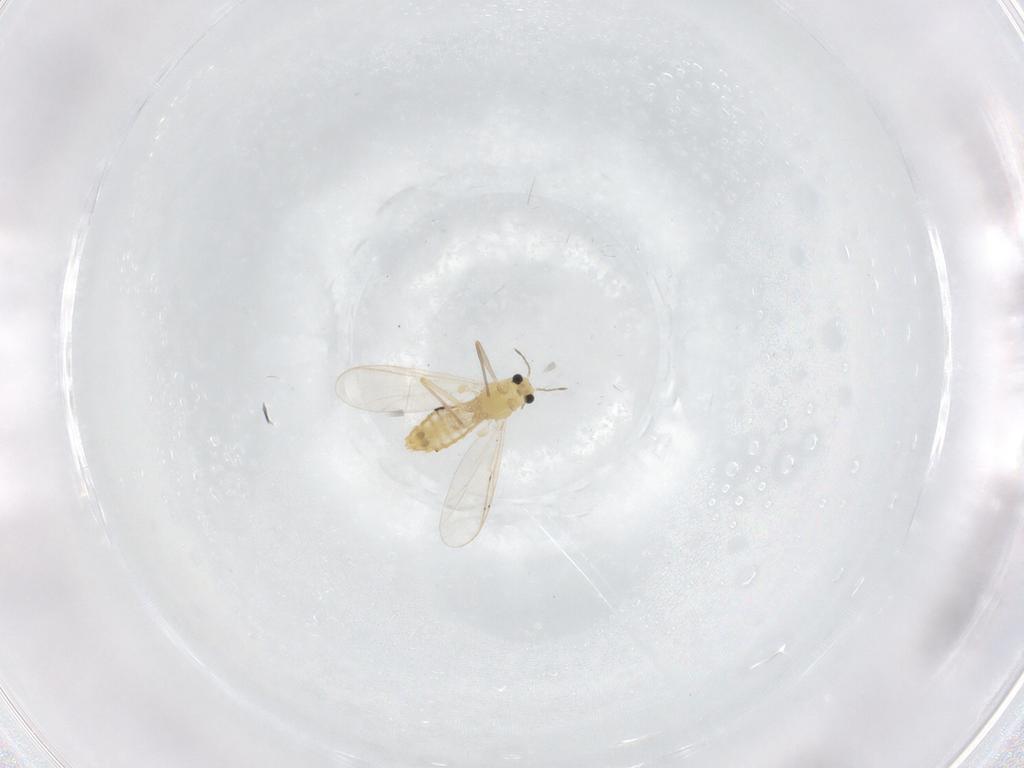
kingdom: Animalia
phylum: Arthropoda
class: Insecta
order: Diptera
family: Chironomidae
